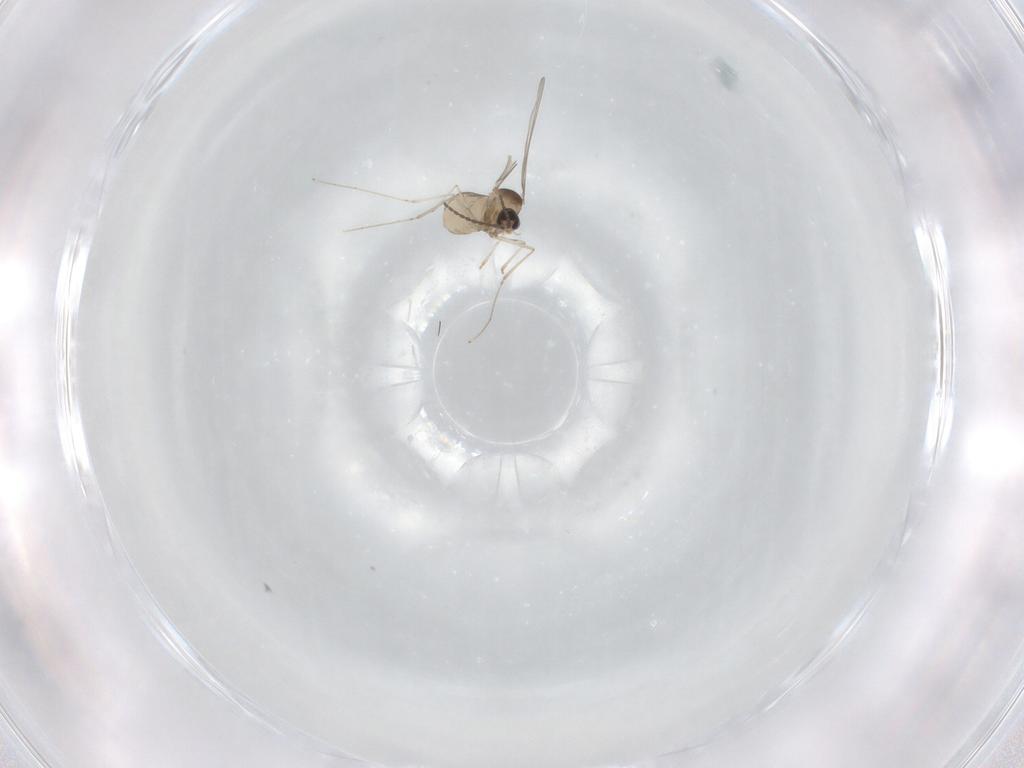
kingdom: Animalia
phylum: Arthropoda
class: Insecta
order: Diptera
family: Cecidomyiidae
